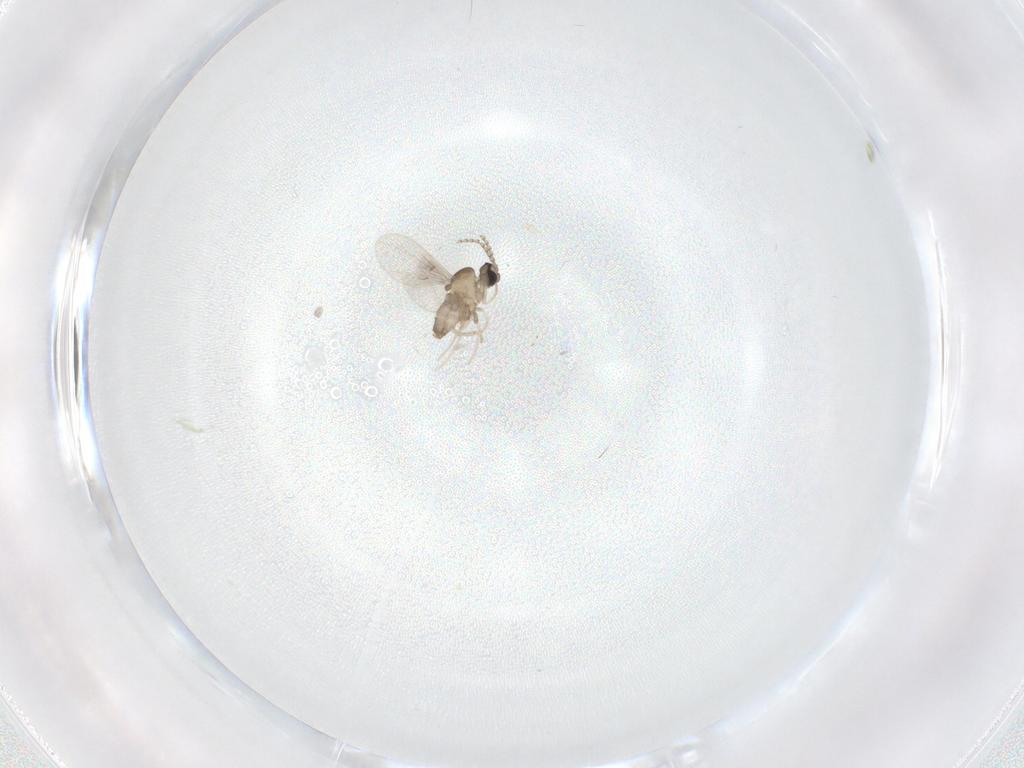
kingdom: Animalia
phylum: Arthropoda
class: Insecta
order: Diptera
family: Cecidomyiidae
